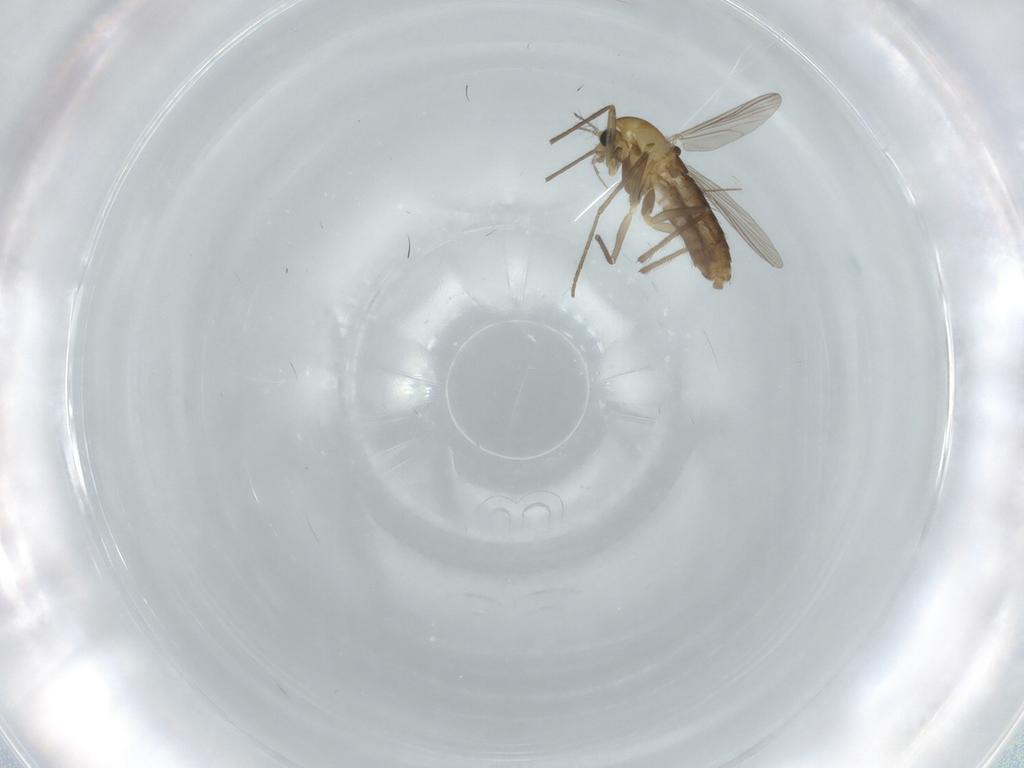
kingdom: Animalia
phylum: Arthropoda
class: Insecta
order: Diptera
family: Chironomidae
